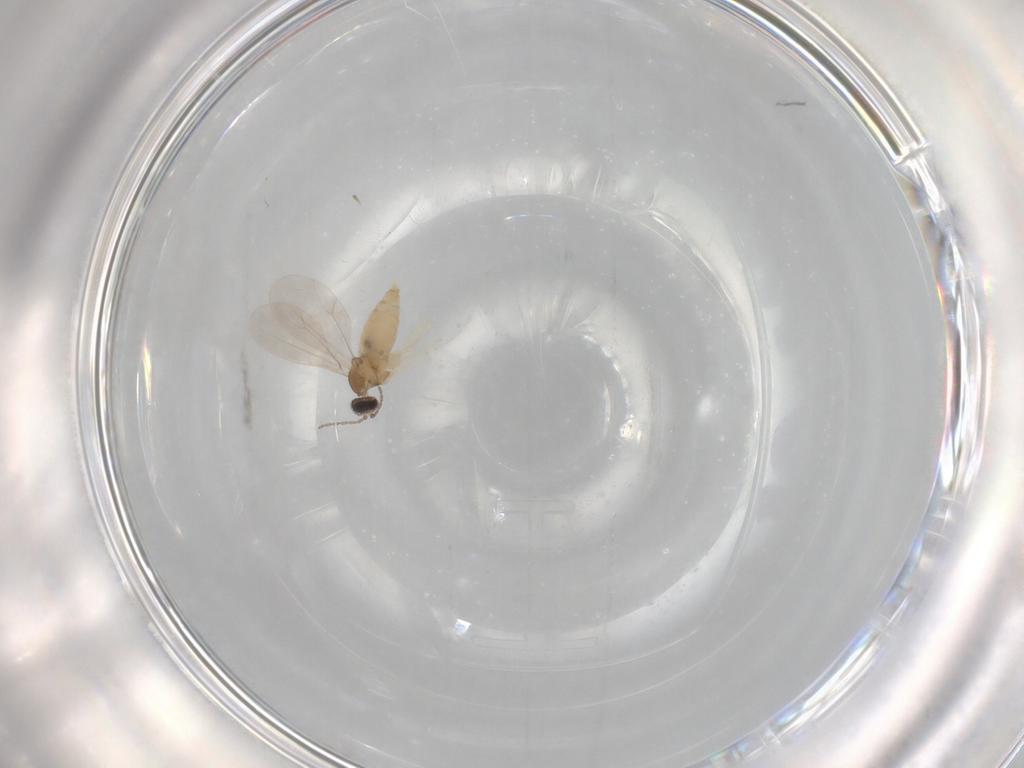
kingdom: Animalia
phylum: Arthropoda
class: Insecta
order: Diptera
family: Cecidomyiidae
